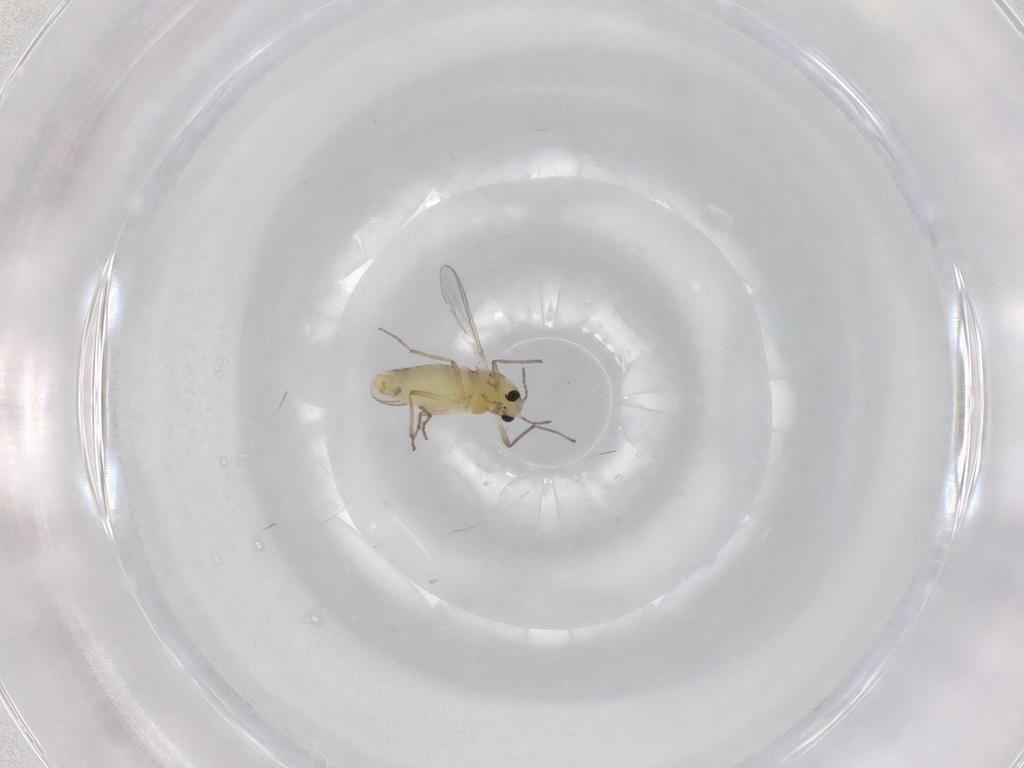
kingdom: Animalia
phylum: Arthropoda
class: Insecta
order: Diptera
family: Chironomidae
